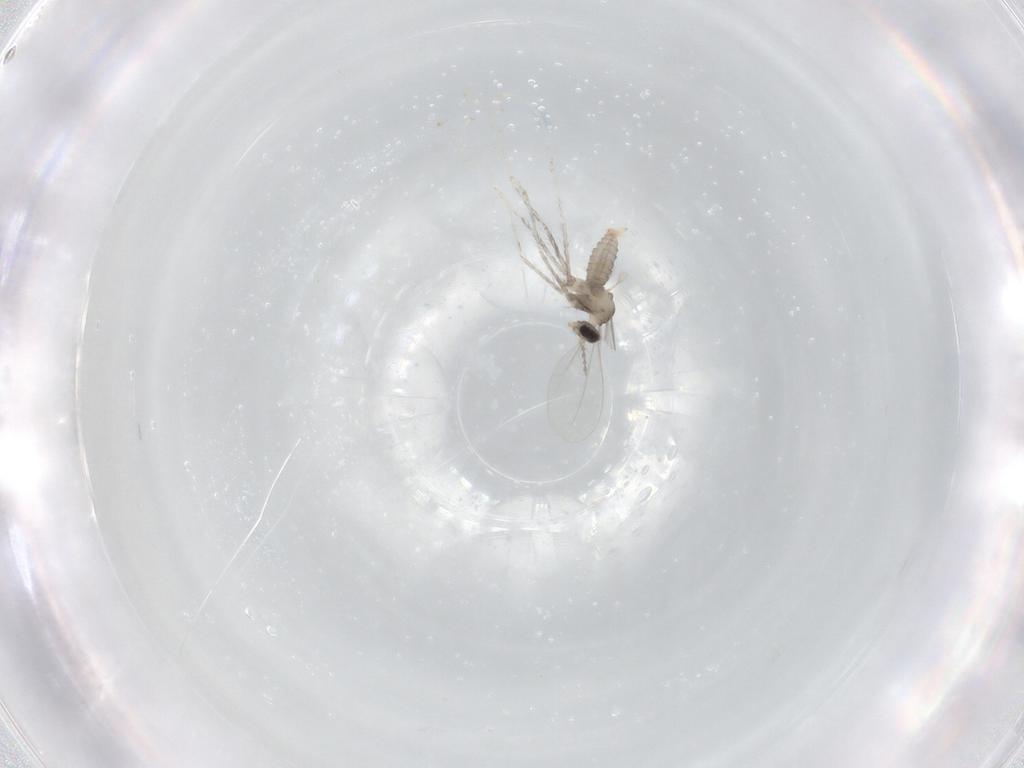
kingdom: Animalia
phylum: Arthropoda
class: Insecta
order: Diptera
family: Cecidomyiidae
